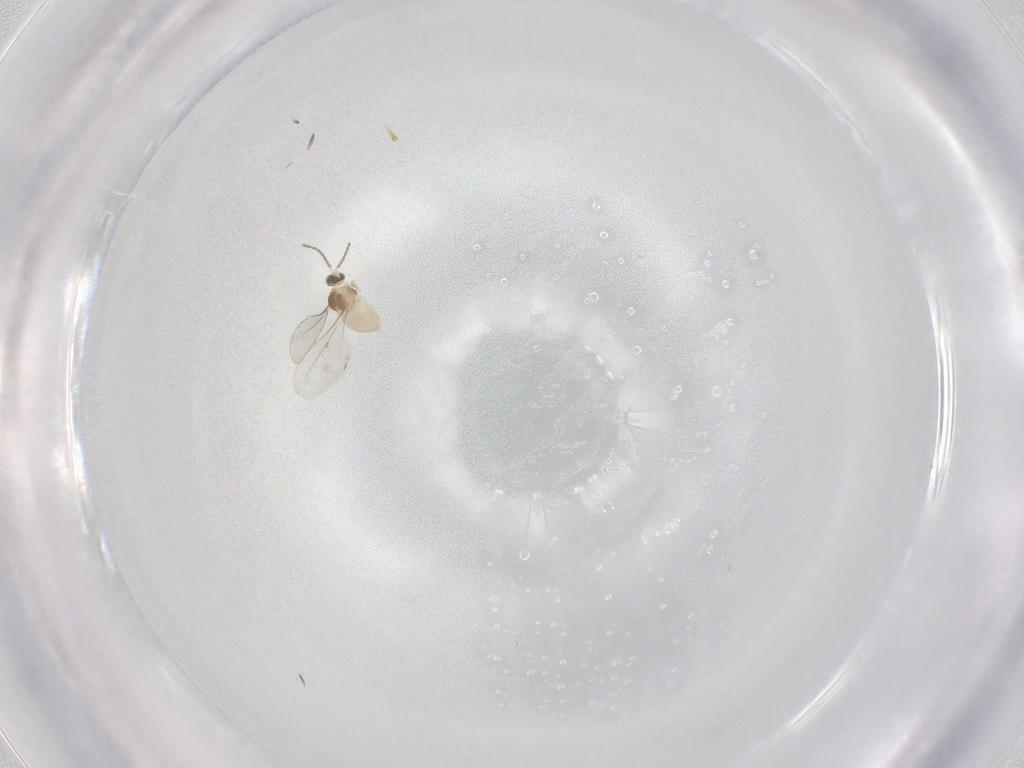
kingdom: Animalia
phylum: Arthropoda
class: Insecta
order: Diptera
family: Cecidomyiidae
